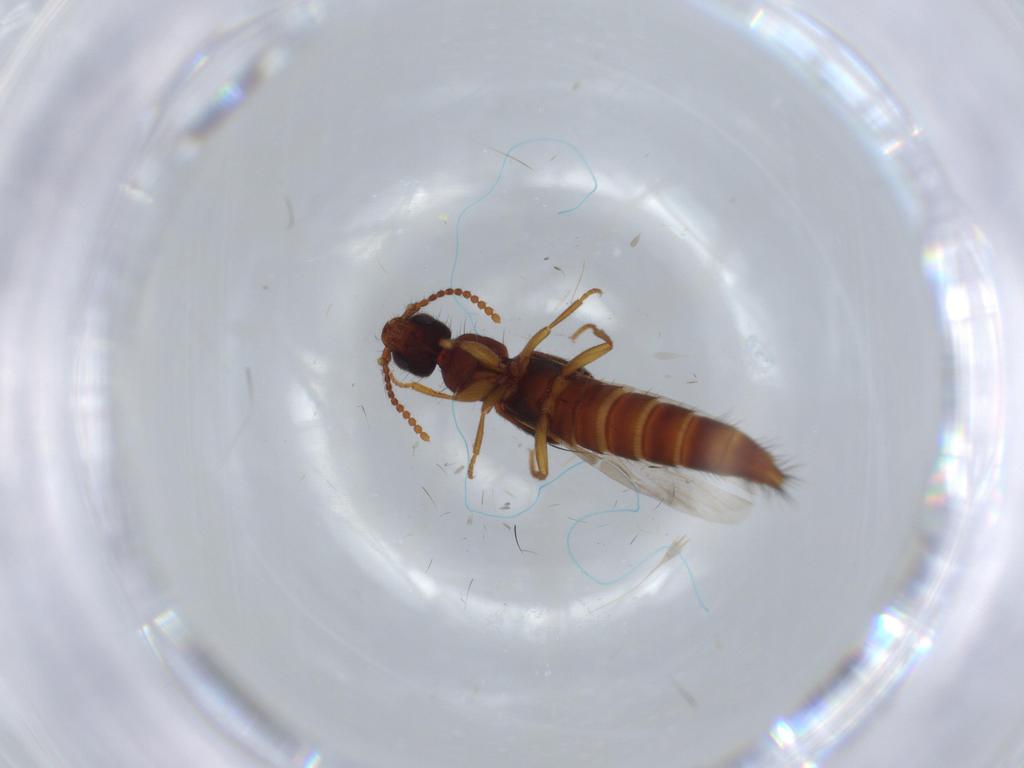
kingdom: Animalia
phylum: Arthropoda
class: Insecta
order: Coleoptera
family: Staphylinidae
